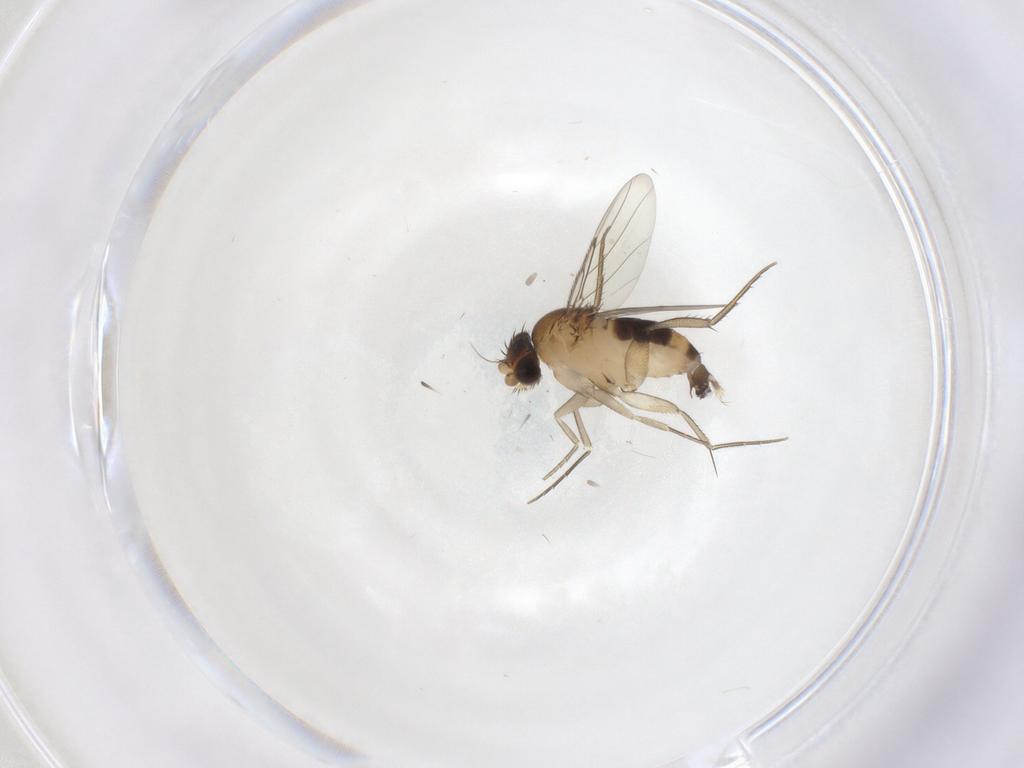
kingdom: Animalia
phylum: Arthropoda
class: Insecta
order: Diptera
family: Phoridae
